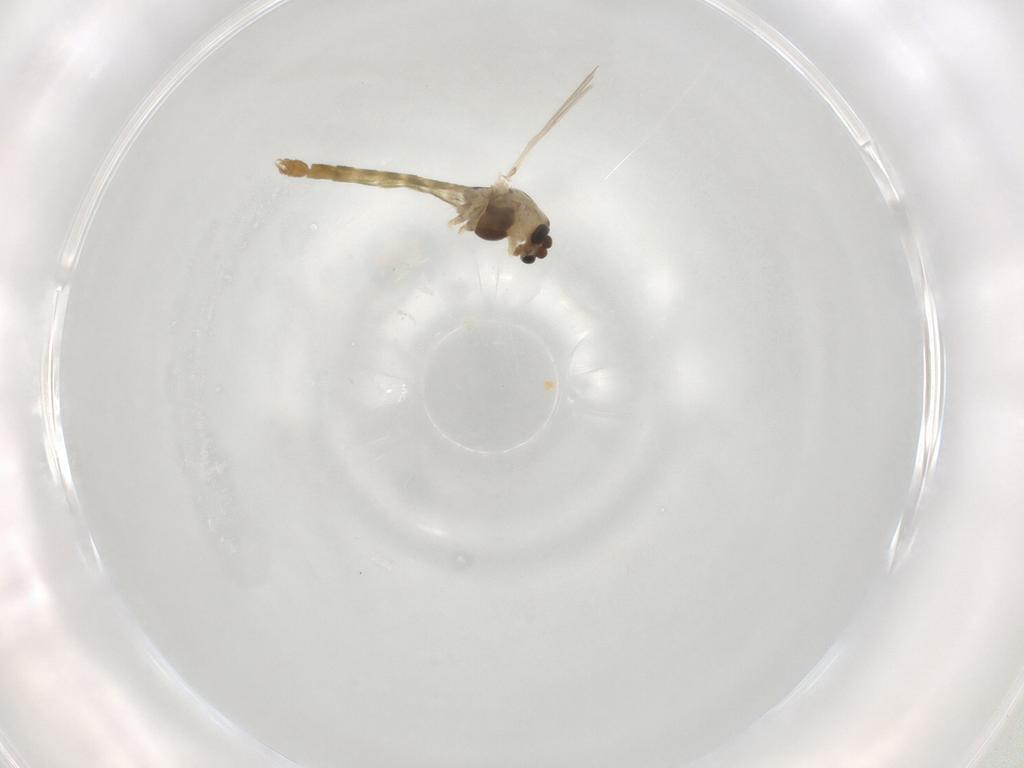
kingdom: Animalia
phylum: Arthropoda
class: Insecta
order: Diptera
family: Chironomidae
